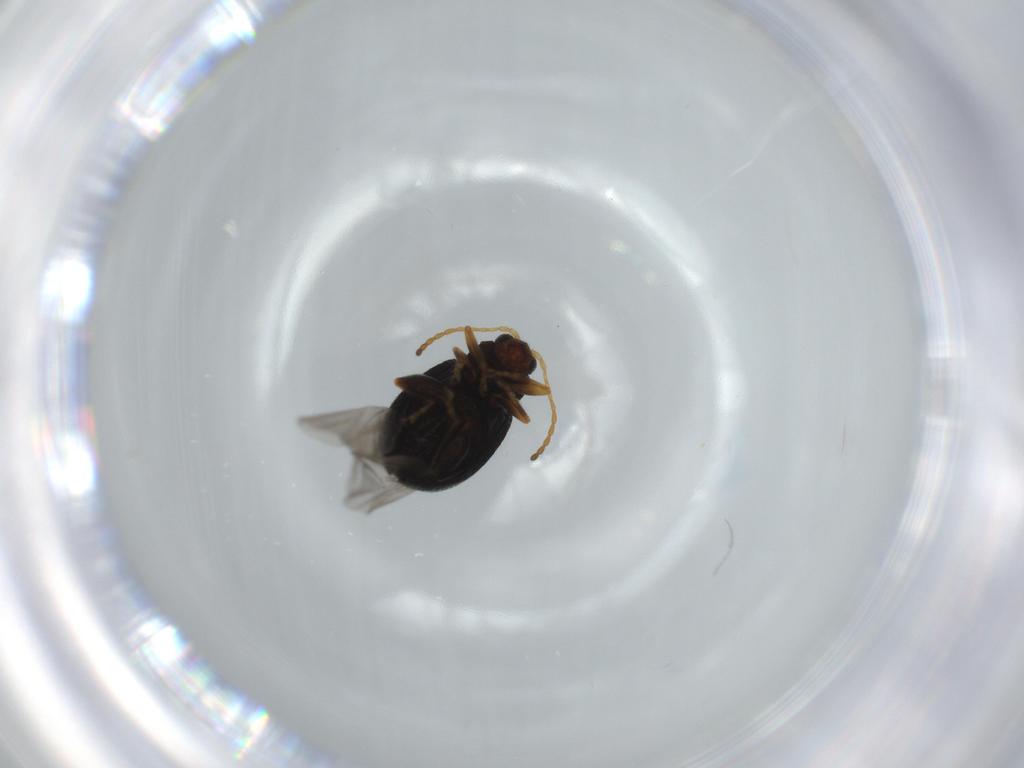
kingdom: Animalia
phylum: Arthropoda
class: Insecta
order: Coleoptera
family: Chrysomelidae
